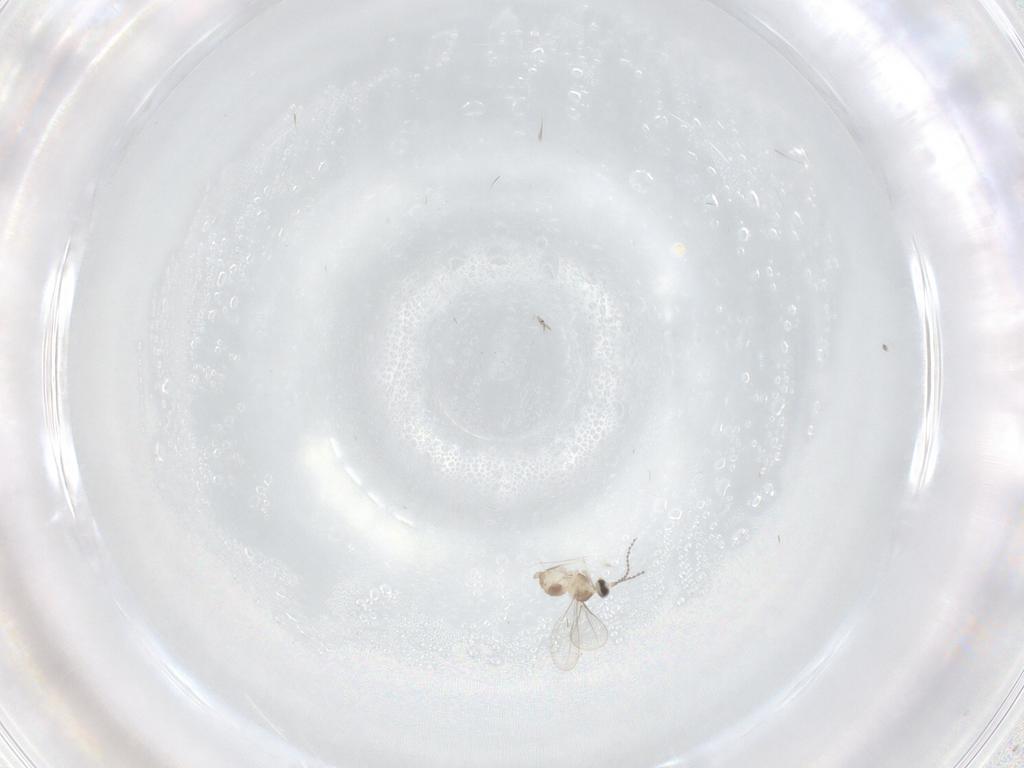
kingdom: Animalia
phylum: Arthropoda
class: Insecta
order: Diptera
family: Cecidomyiidae
